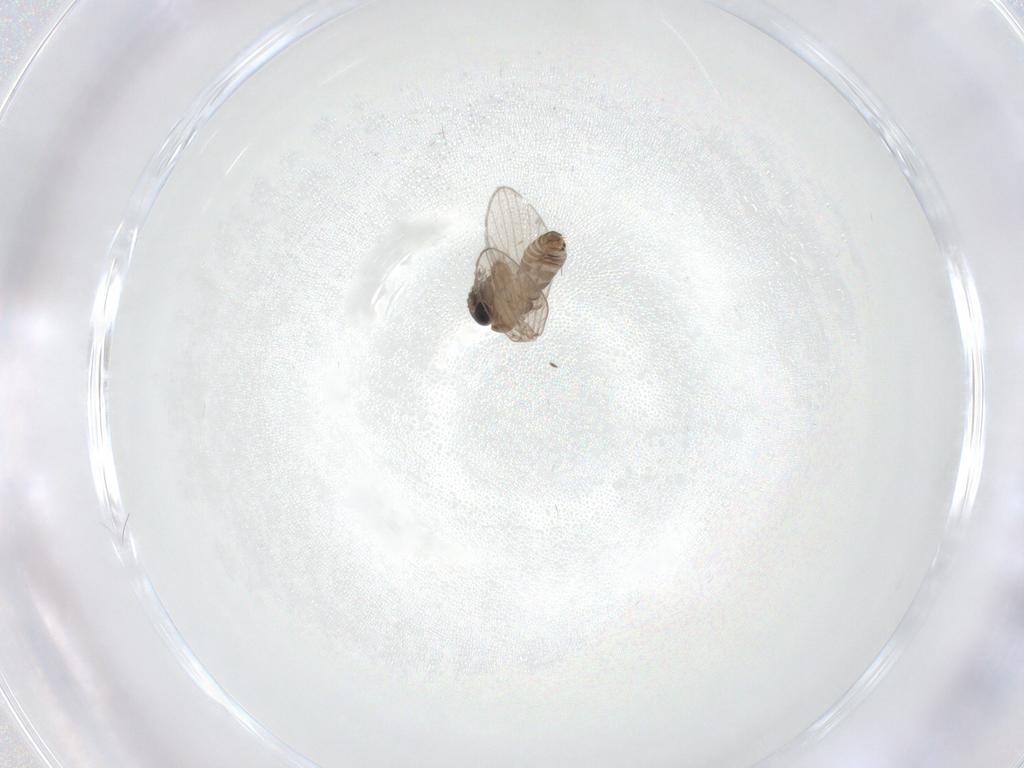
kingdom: Animalia
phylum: Arthropoda
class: Insecta
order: Diptera
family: Psychodidae
